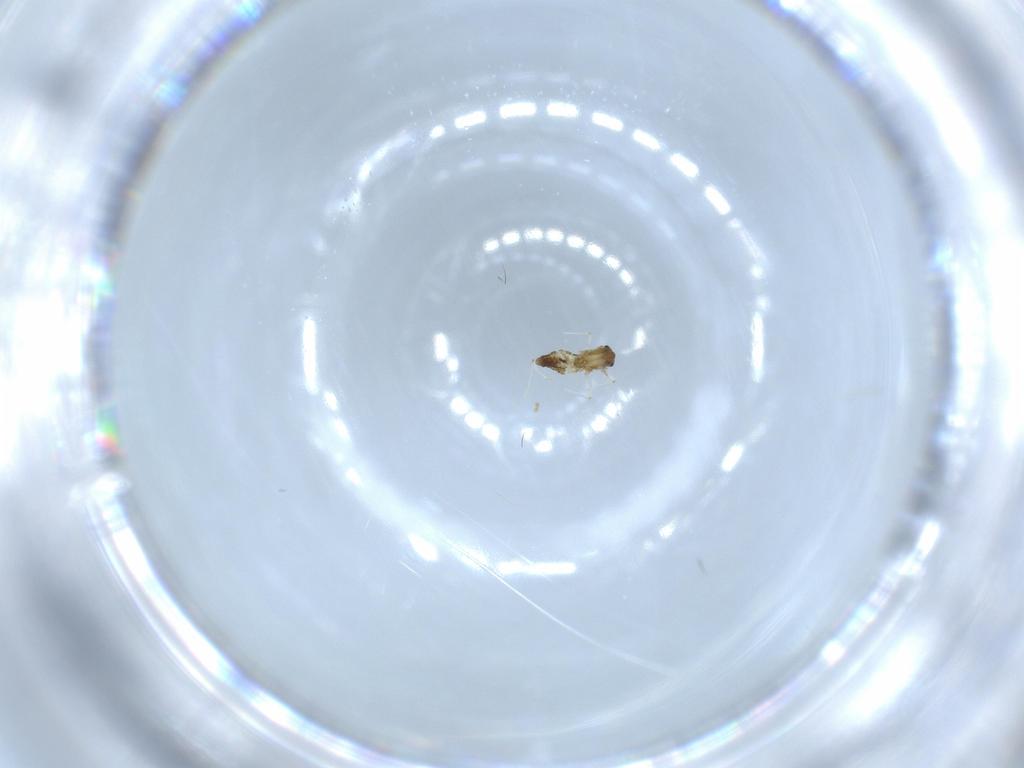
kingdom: Animalia
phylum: Arthropoda
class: Insecta
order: Diptera
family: Chironomidae
